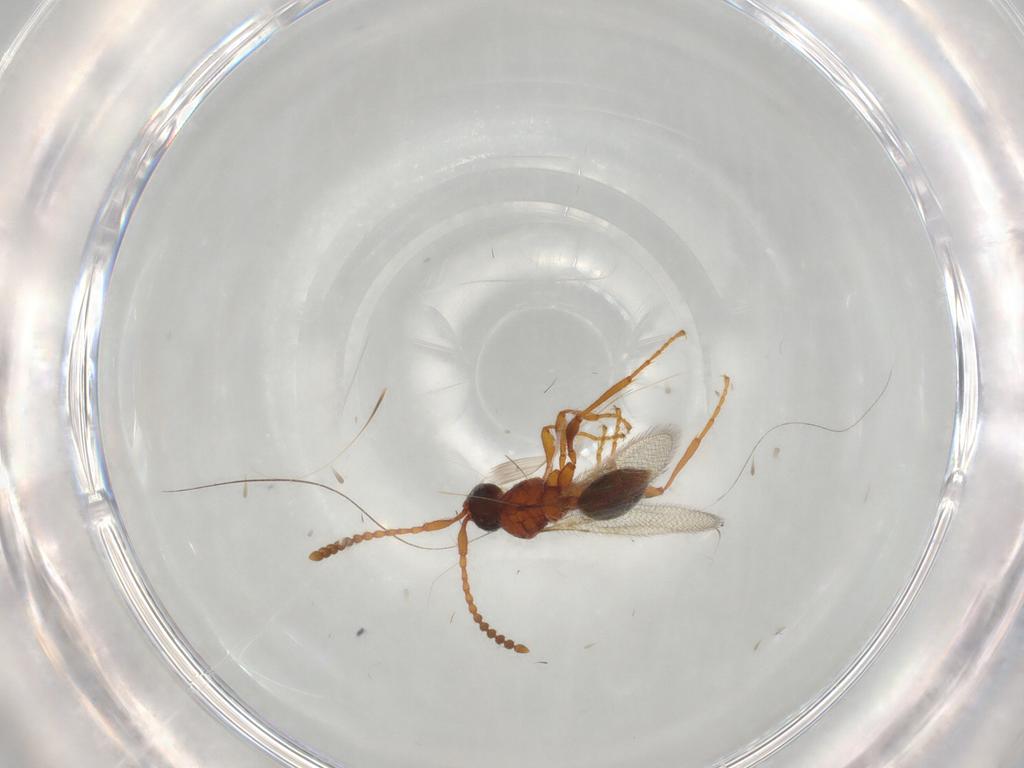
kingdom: Animalia
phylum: Arthropoda
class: Insecta
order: Hymenoptera
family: Diapriidae
